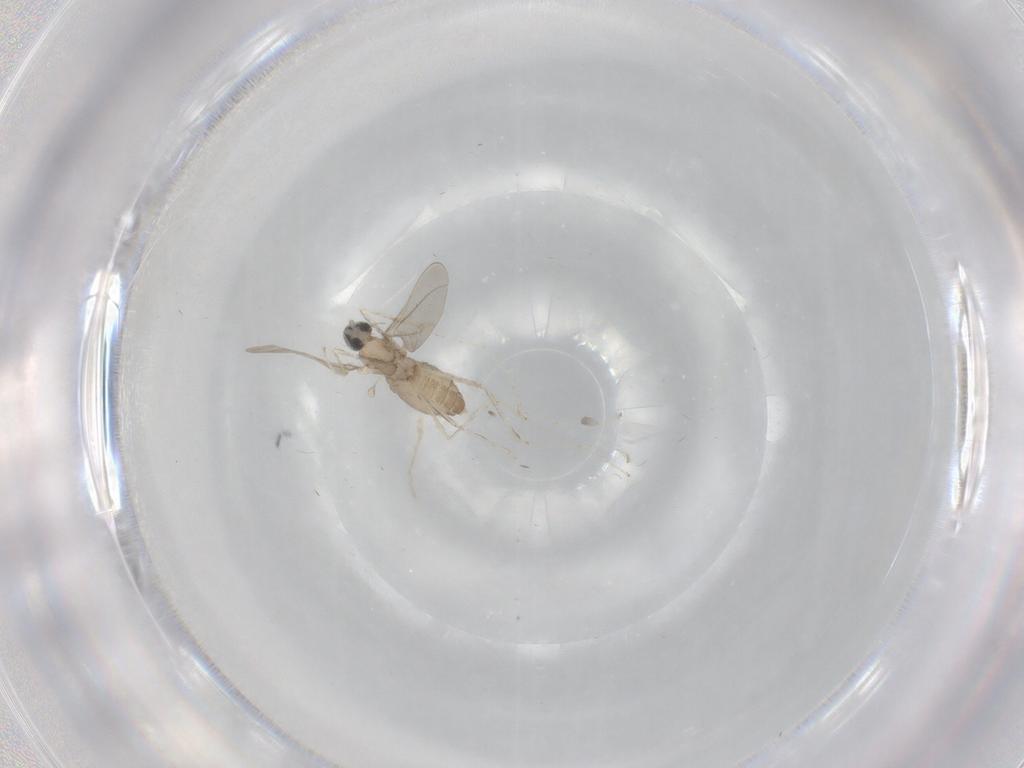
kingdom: Animalia
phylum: Arthropoda
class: Insecta
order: Diptera
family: Cecidomyiidae
